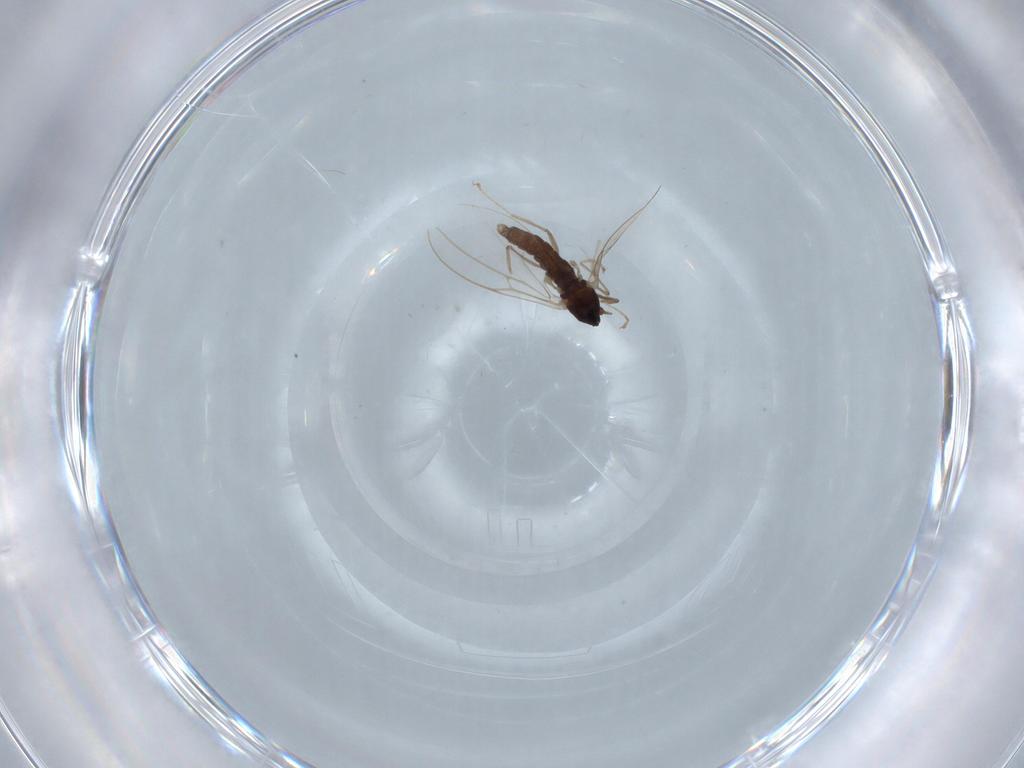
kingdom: Animalia
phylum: Arthropoda
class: Insecta
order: Diptera
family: Cecidomyiidae
